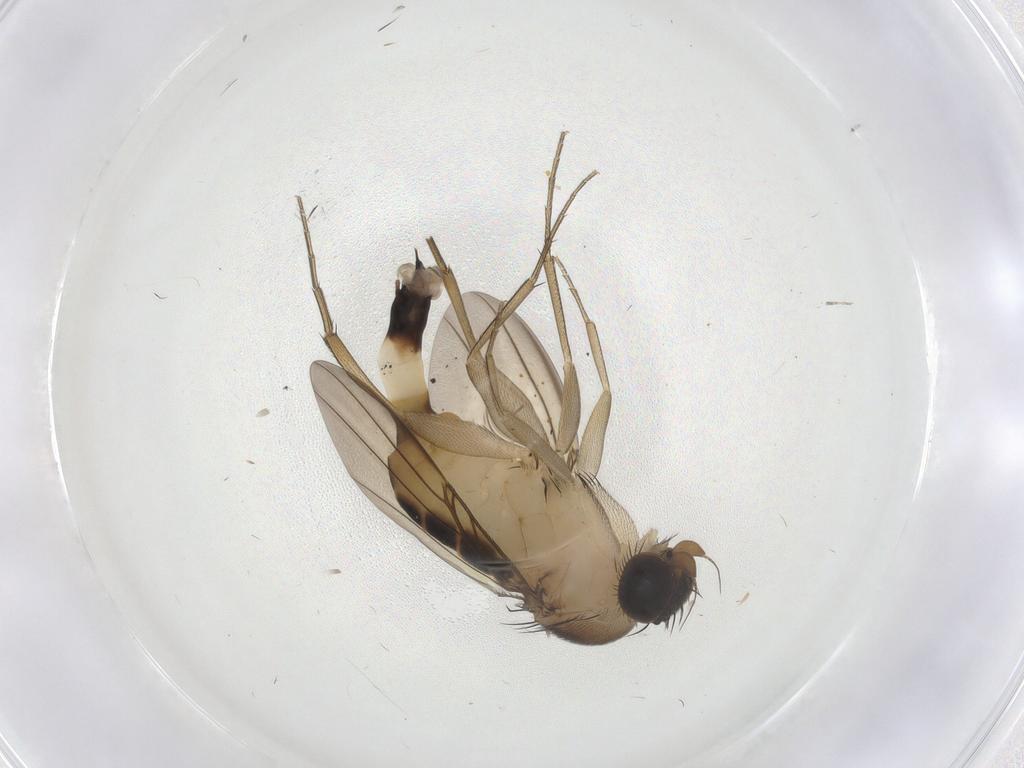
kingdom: Animalia
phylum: Arthropoda
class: Insecta
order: Diptera
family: Phoridae
